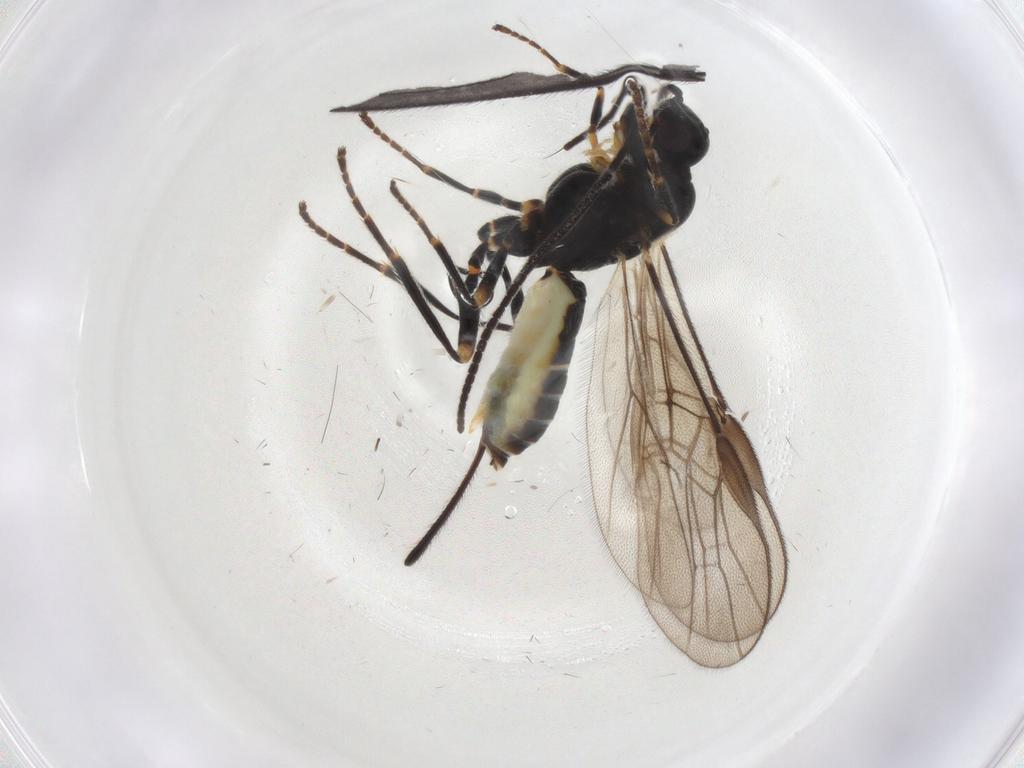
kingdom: Animalia
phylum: Arthropoda
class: Insecta
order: Hymenoptera
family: Braconidae
